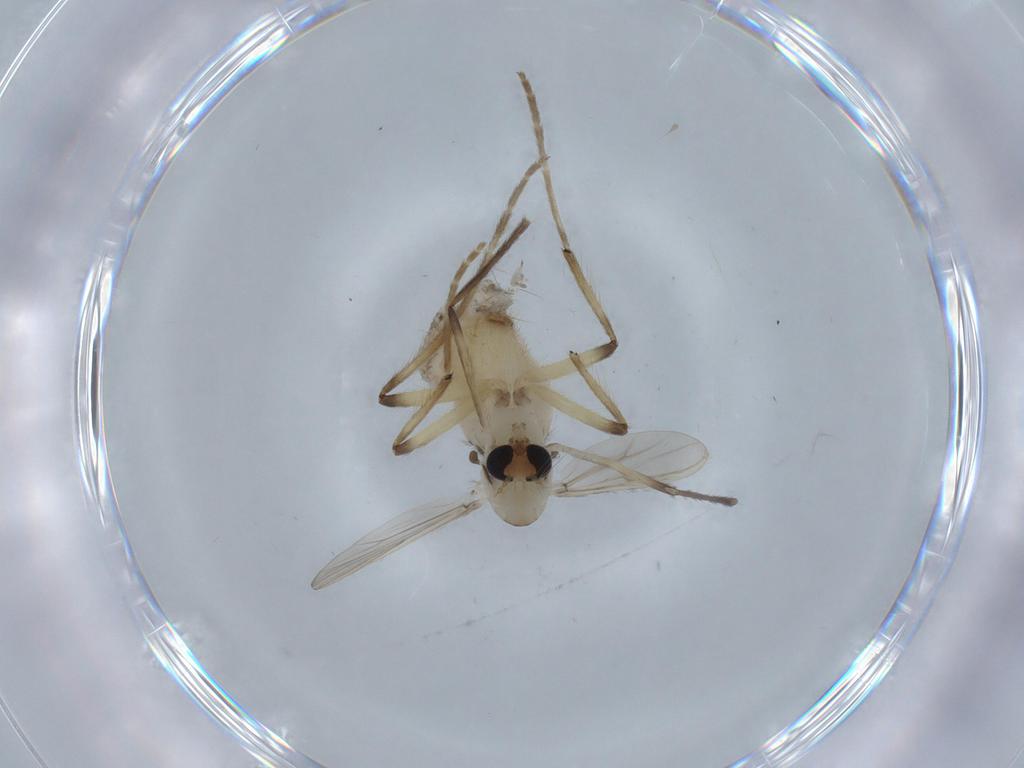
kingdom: Animalia
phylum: Arthropoda
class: Insecta
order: Diptera
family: Chironomidae
